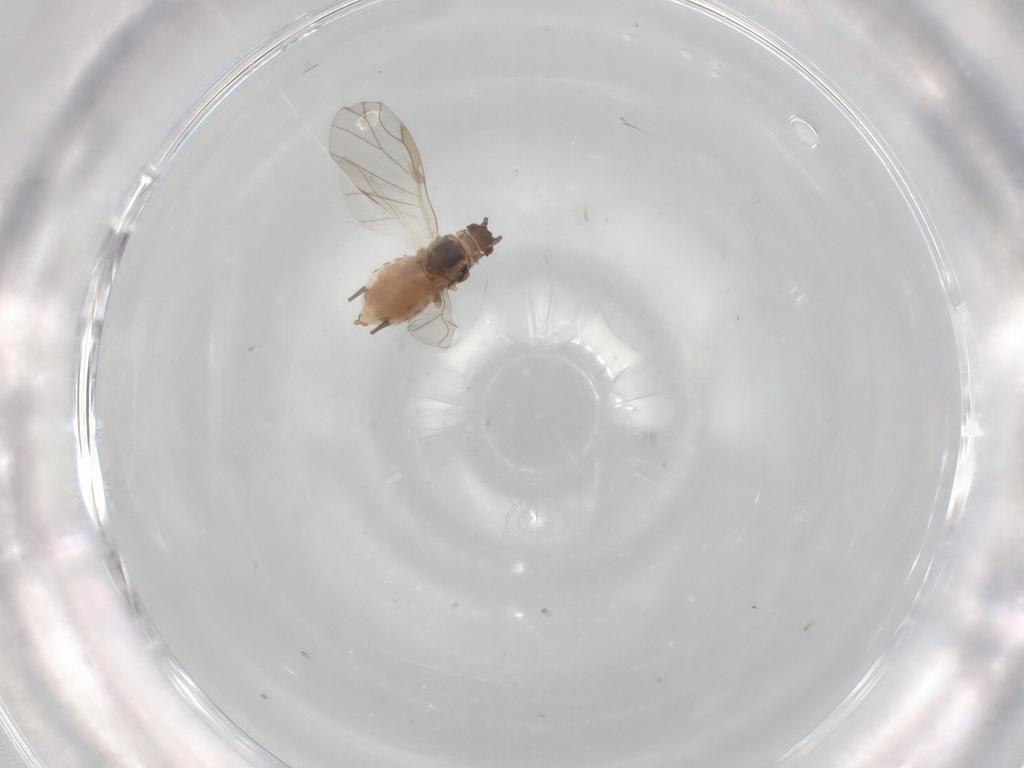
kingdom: Animalia
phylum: Arthropoda
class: Insecta
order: Hemiptera
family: Aphididae
